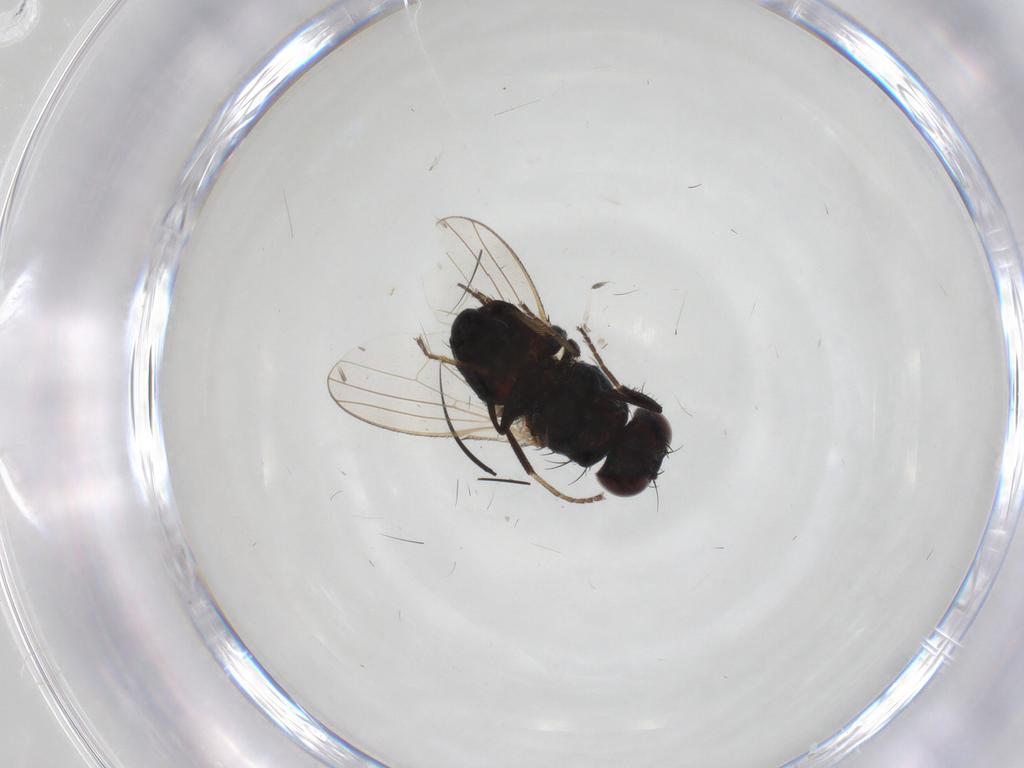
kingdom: Animalia
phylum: Arthropoda
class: Insecta
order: Diptera
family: Carnidae
